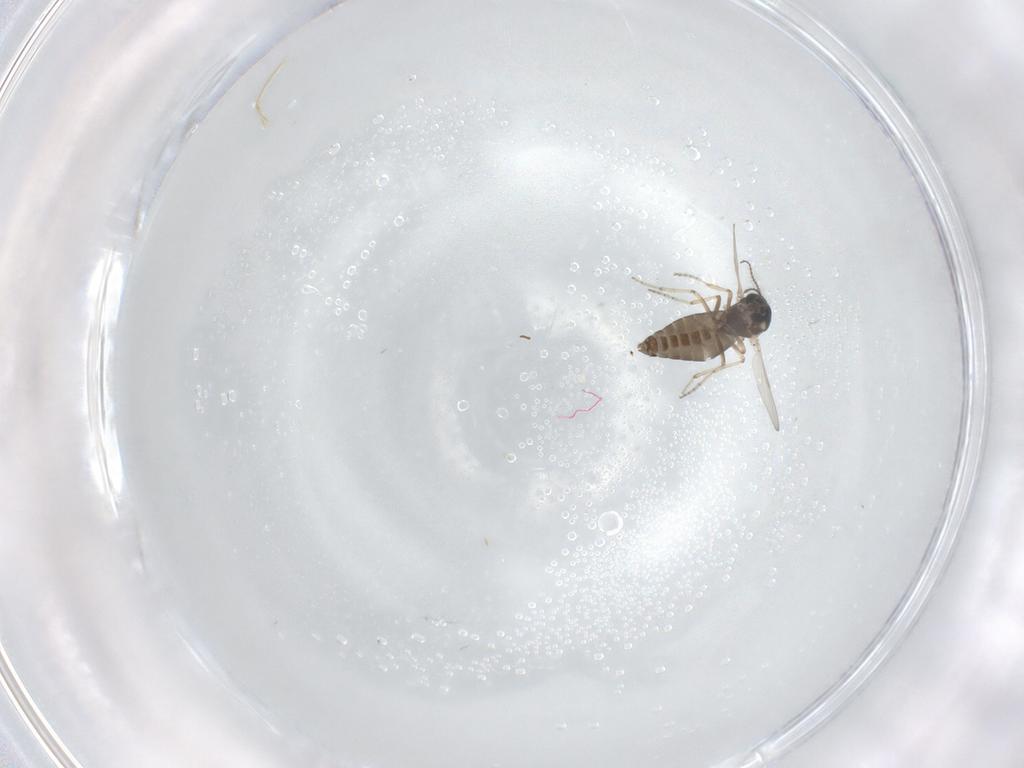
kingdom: Animalia
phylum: Arthropoda
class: Insecta
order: Diptera
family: Ceratopogonidae
